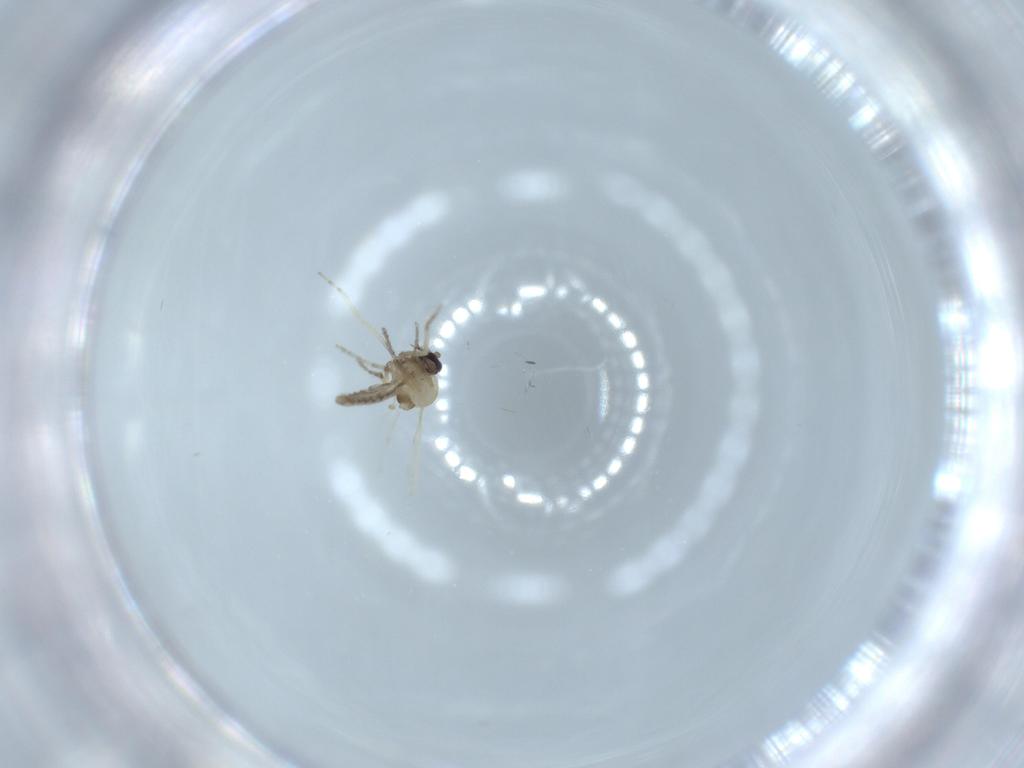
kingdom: Animalia
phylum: Arthropoda
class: Insecta
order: Diptera
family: Ceratopogonidae
